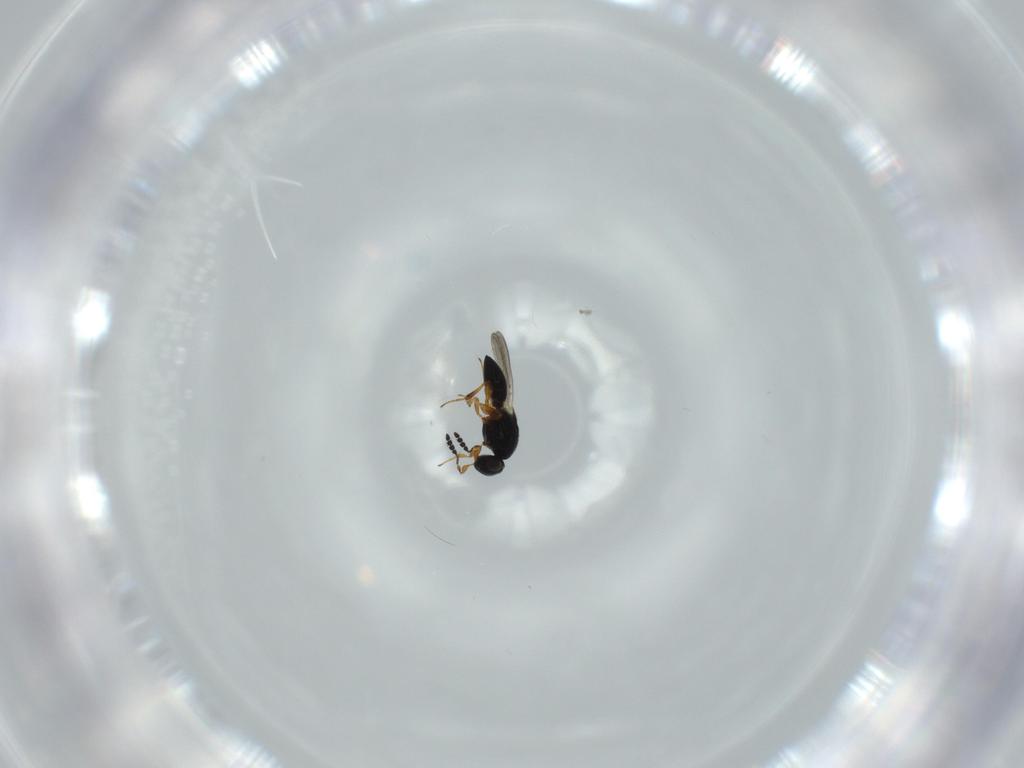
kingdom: Animalia
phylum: Arthropoda
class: Insecta
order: Hymenoptera
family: Platygastridae
